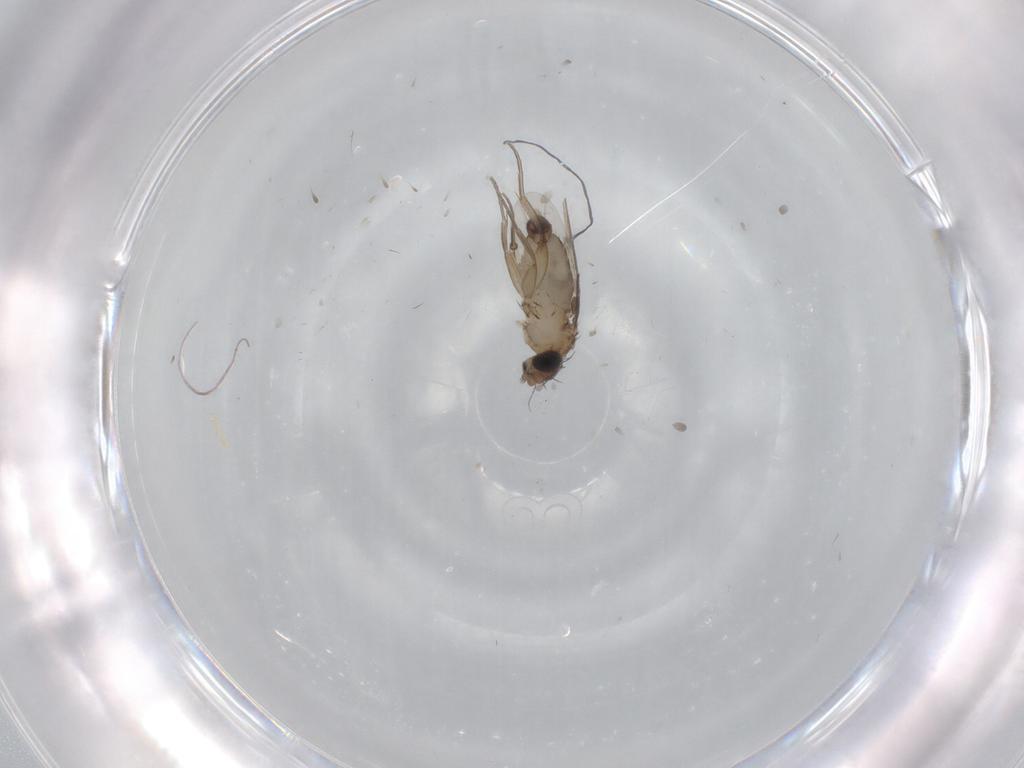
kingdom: Animalia
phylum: Arthropoda
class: Insecta
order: Diptera
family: Phoridae
